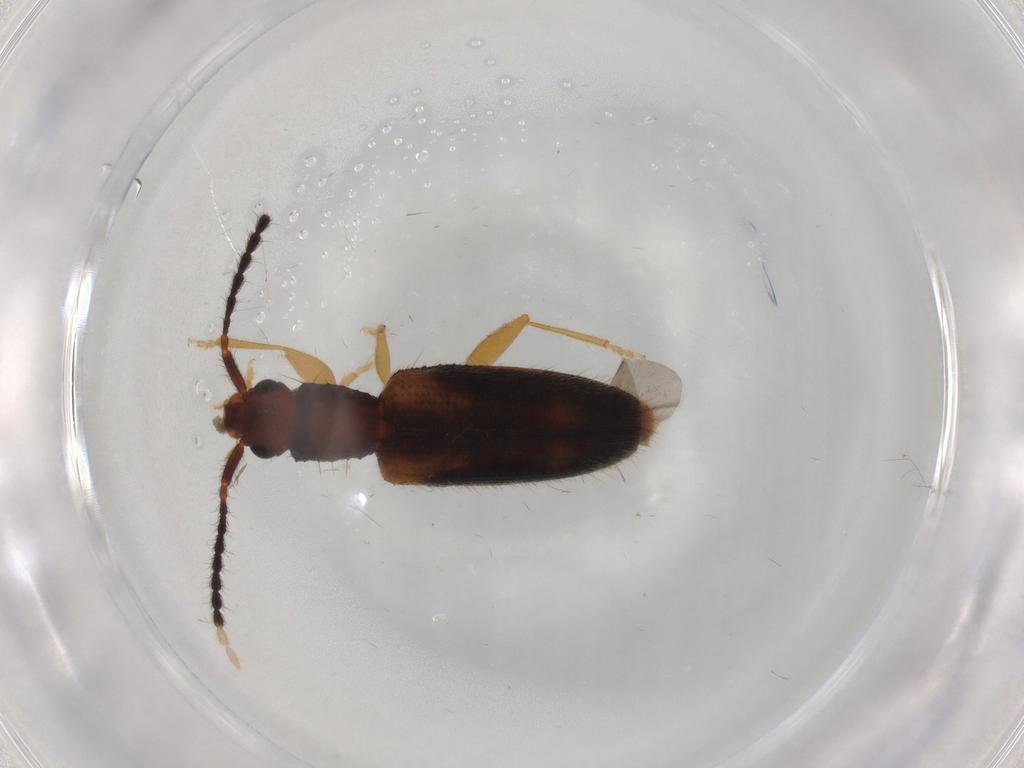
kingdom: Animalia
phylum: Arthropoda
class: Insecta
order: Coleoptera
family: Silvanidae
